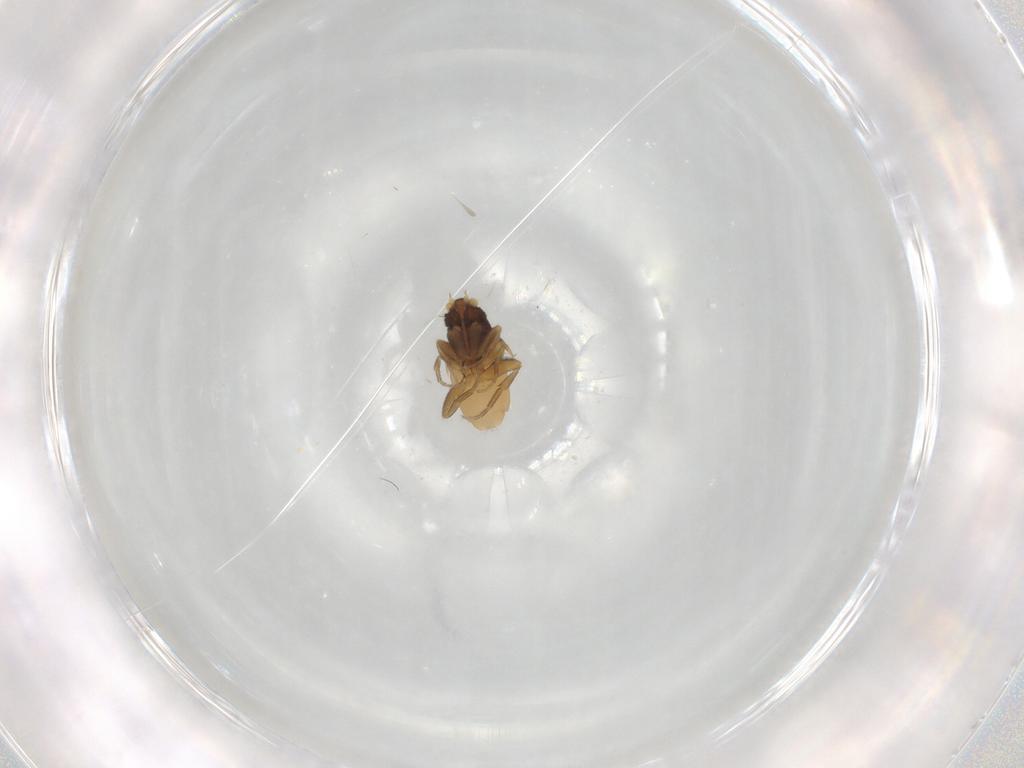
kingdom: Animalia
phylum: Arthropoda
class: Insecta
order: Diptera
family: Phoridae
